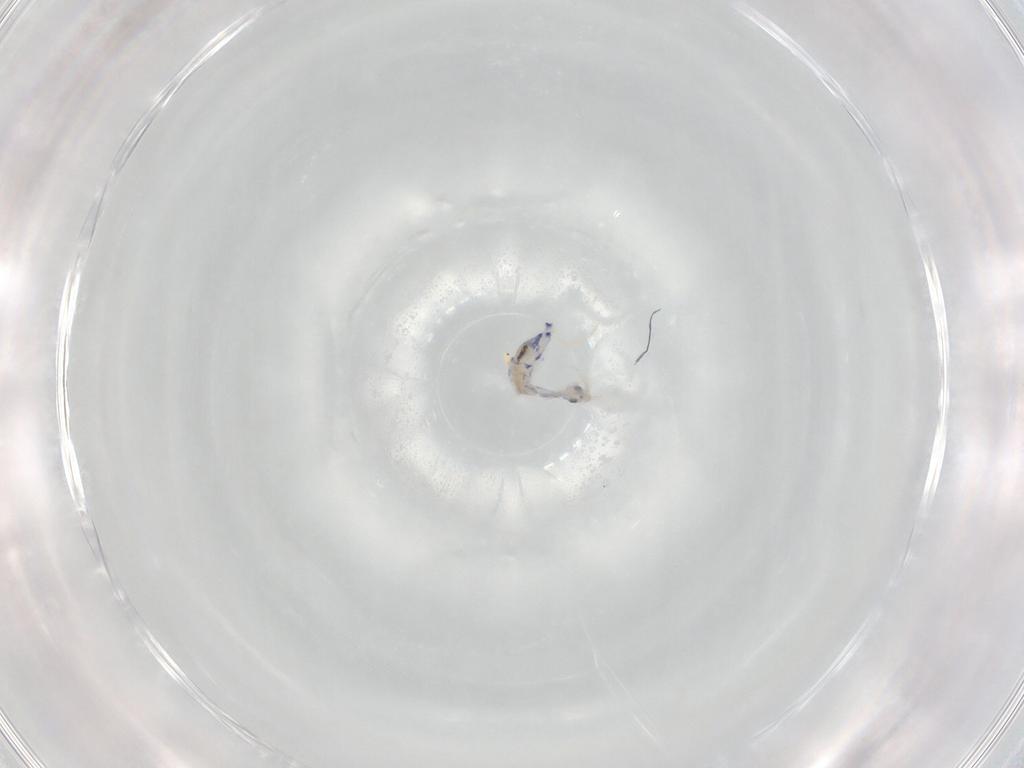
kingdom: Animalia
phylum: Arthropoda
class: Collembola
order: Entomobryomorpha
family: Entomobryidae
